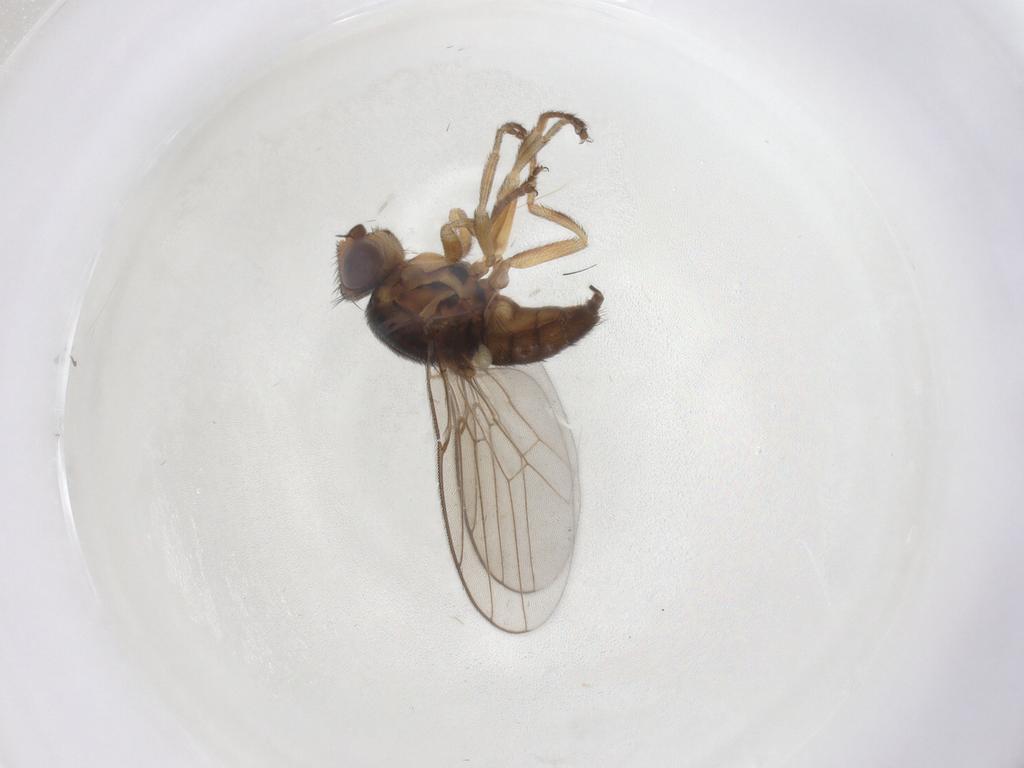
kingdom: Animalia
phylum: Arthropoda
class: Insecta
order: Diptera
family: Chloropidae
